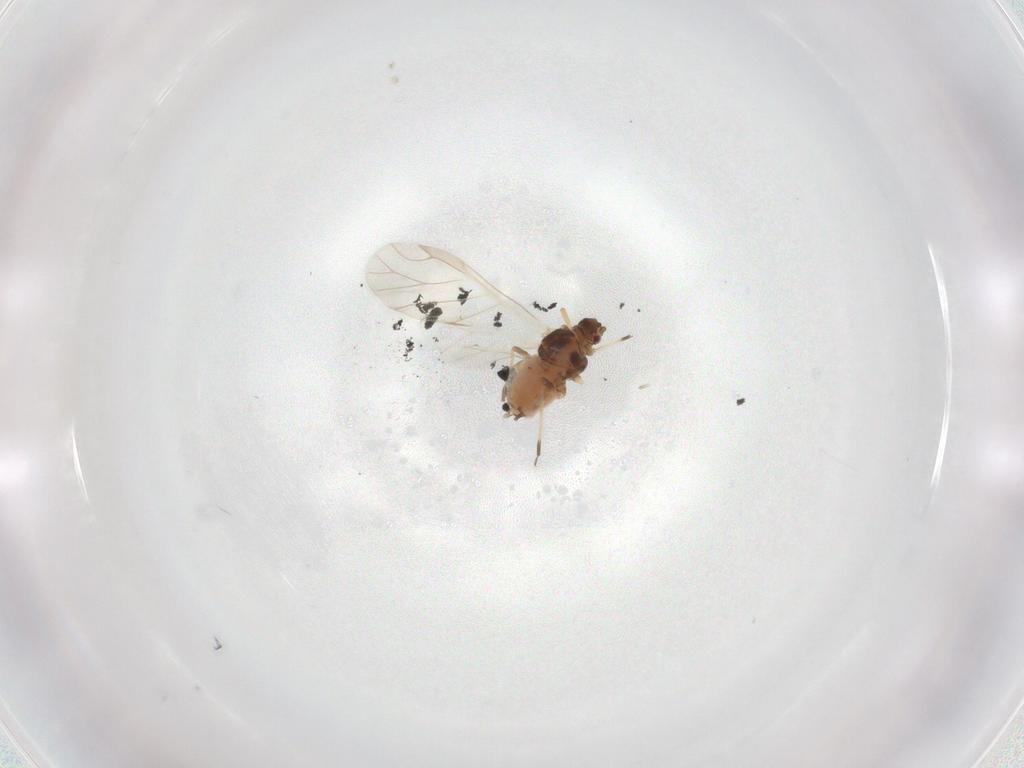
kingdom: Animalia
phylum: Arthropoda
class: Insecta
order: Hemiptera
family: Aphididae
